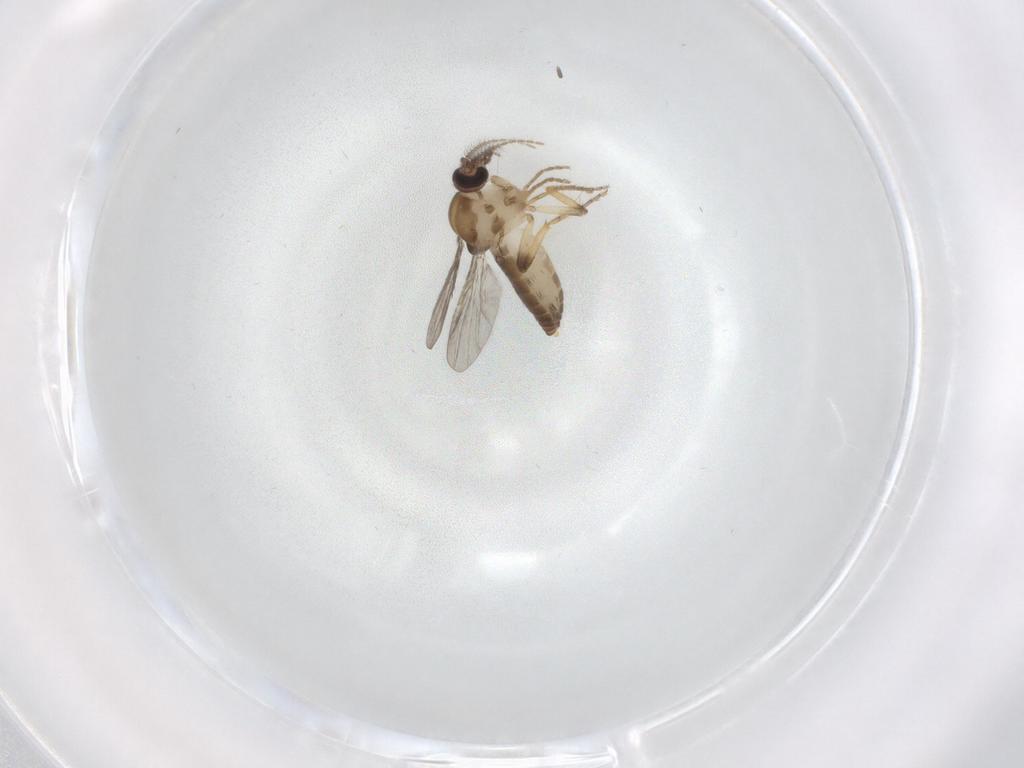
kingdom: Animalia
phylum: Arthropoda
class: Insecta
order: Diptera
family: Ceratopogonidae
